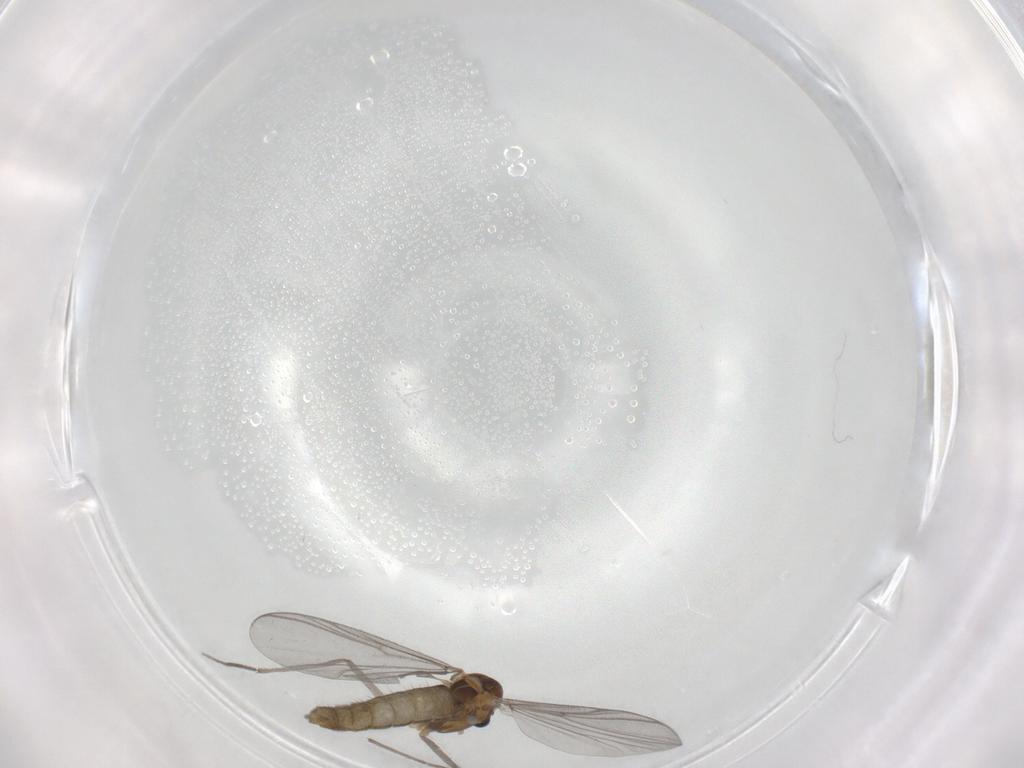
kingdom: Animalia
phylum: Arthropoda
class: Insecta
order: Diptera
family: Chironomidae
